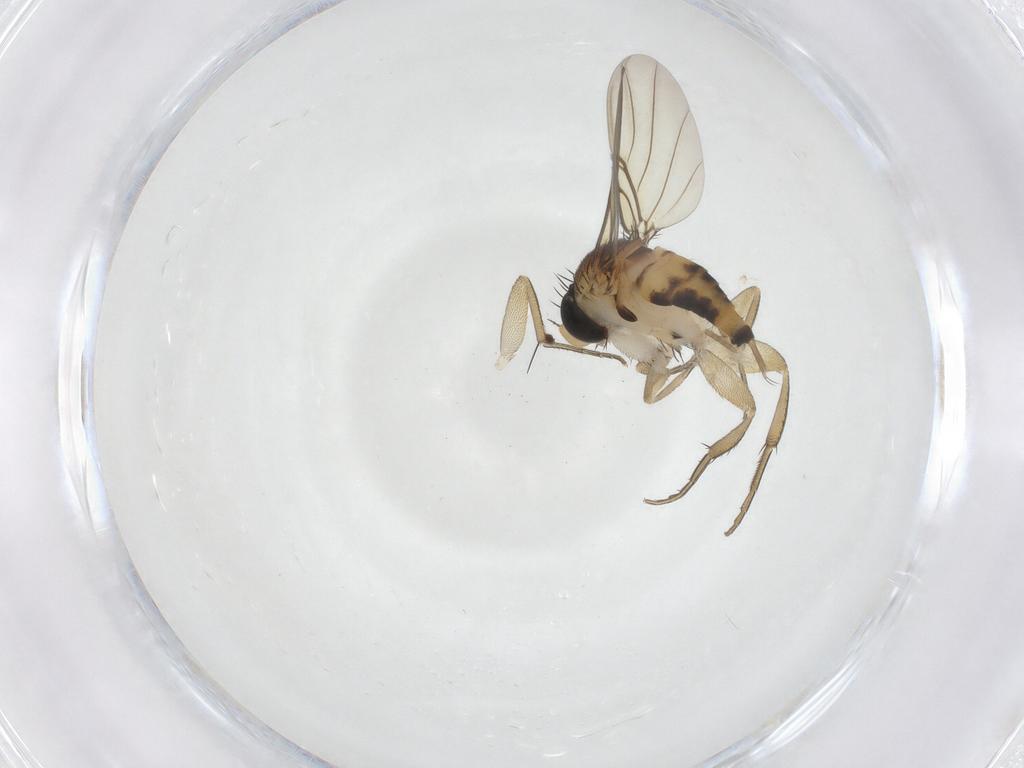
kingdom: Animalia
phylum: Arthropoda
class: Insecta
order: Diptera
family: Phoridae
